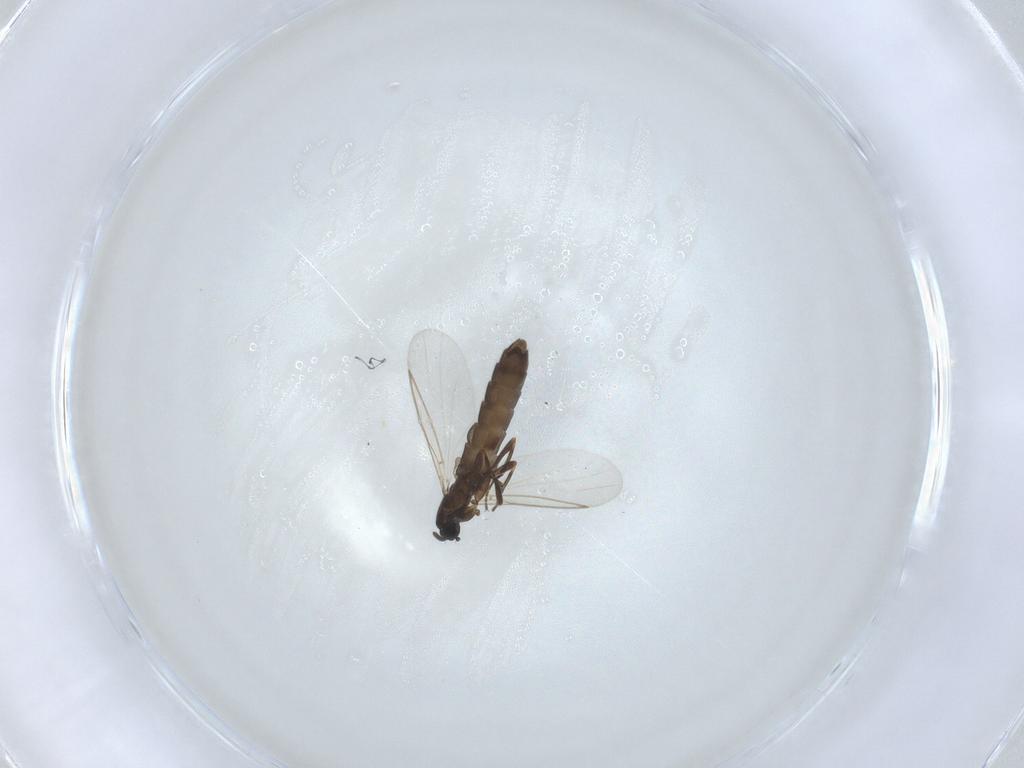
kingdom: Animalia
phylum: Arthropoda
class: Insecta
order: Diptera
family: Scatopsidae
